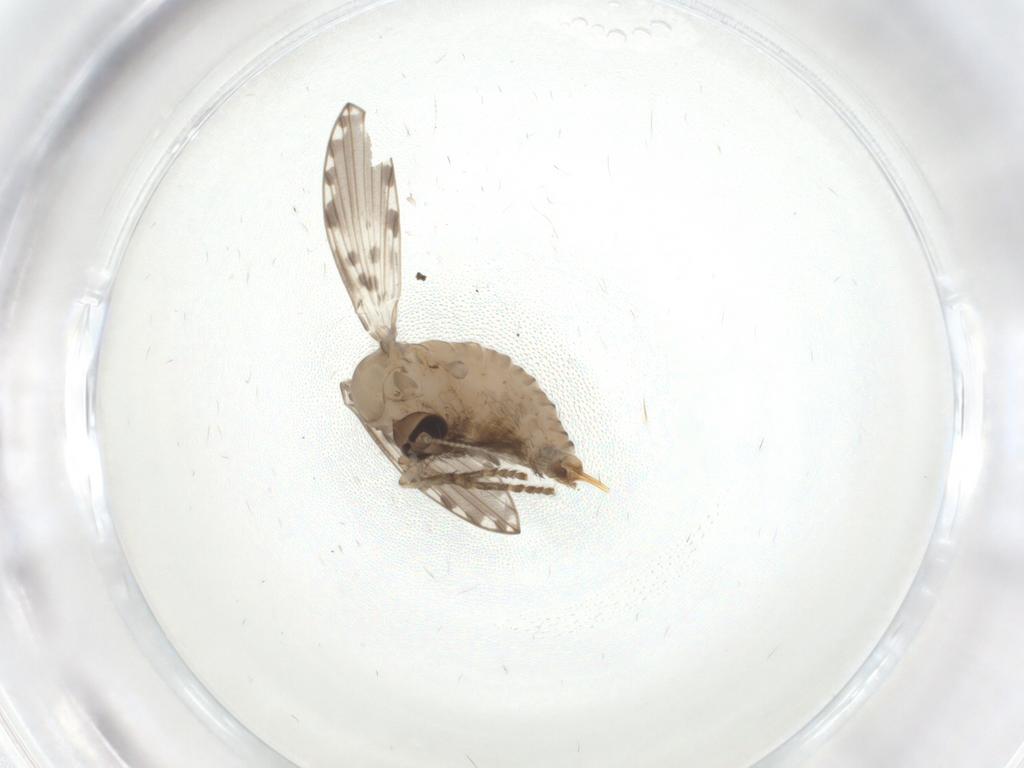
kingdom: Animalia
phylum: Arthropoda
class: Insecta
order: Diptera
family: Psychodidae
